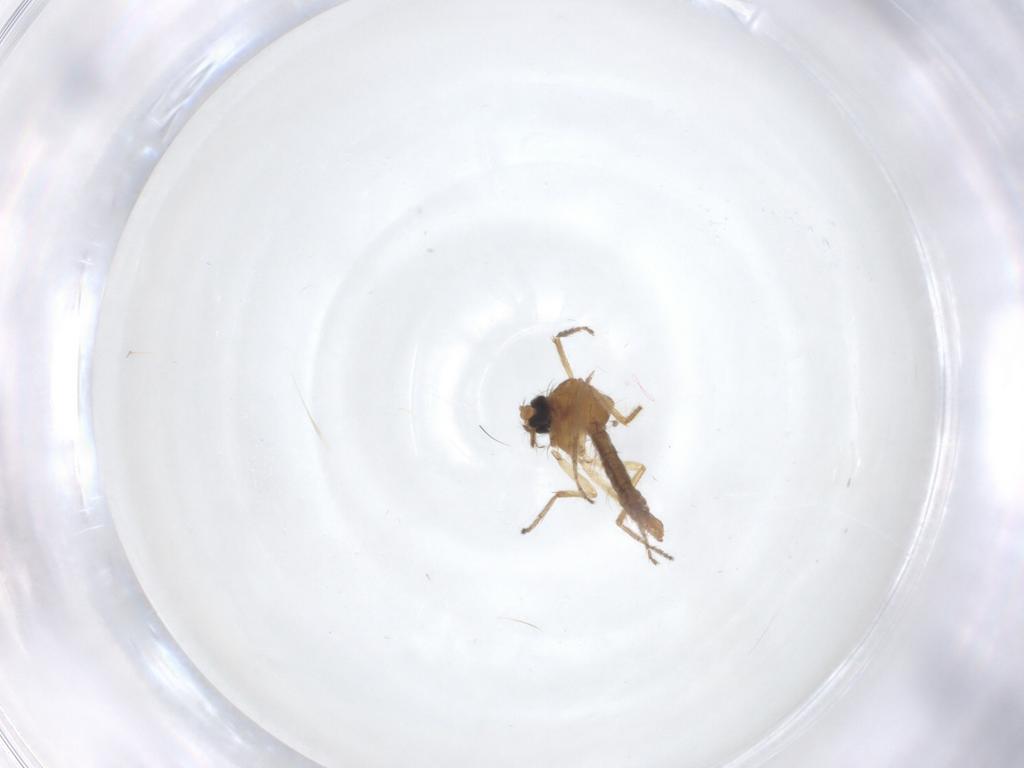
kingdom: Animalia
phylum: Arthropoda
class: Insecta
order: Diptera
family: Ceratopogonidae
